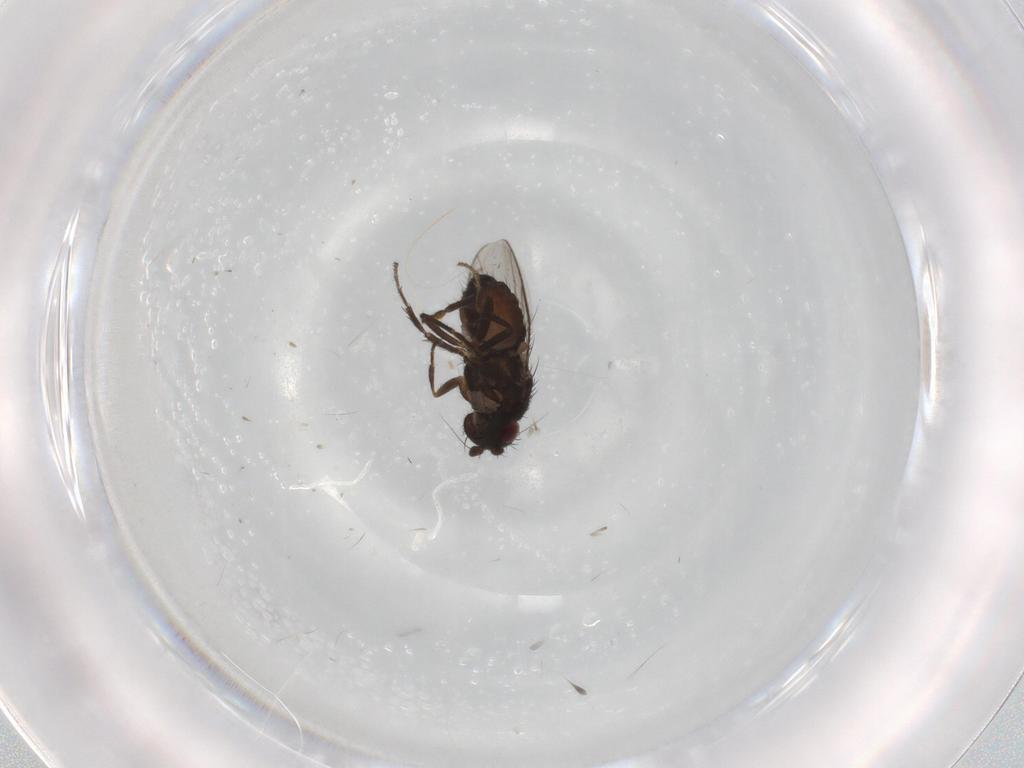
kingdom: Animalia
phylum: Arthropoda
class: Insecta
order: Diptera
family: Sphaeroceridae
